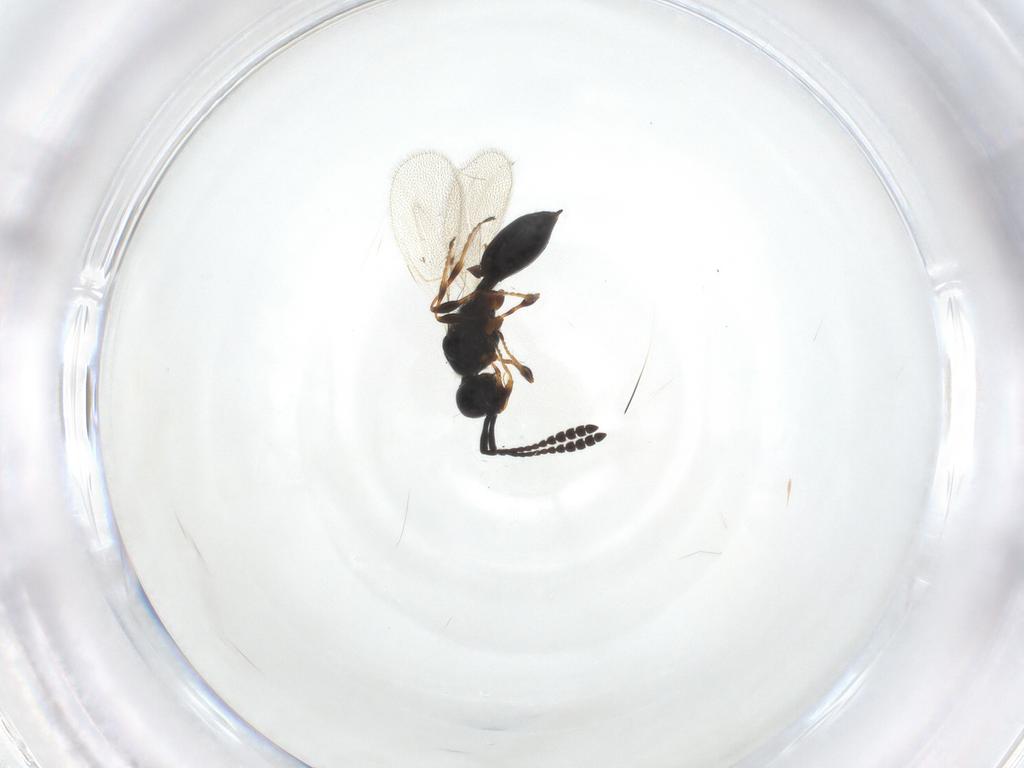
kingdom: Animalia
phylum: Arthropoda
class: Insecta
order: Hymenoptera
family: Diapriidae
